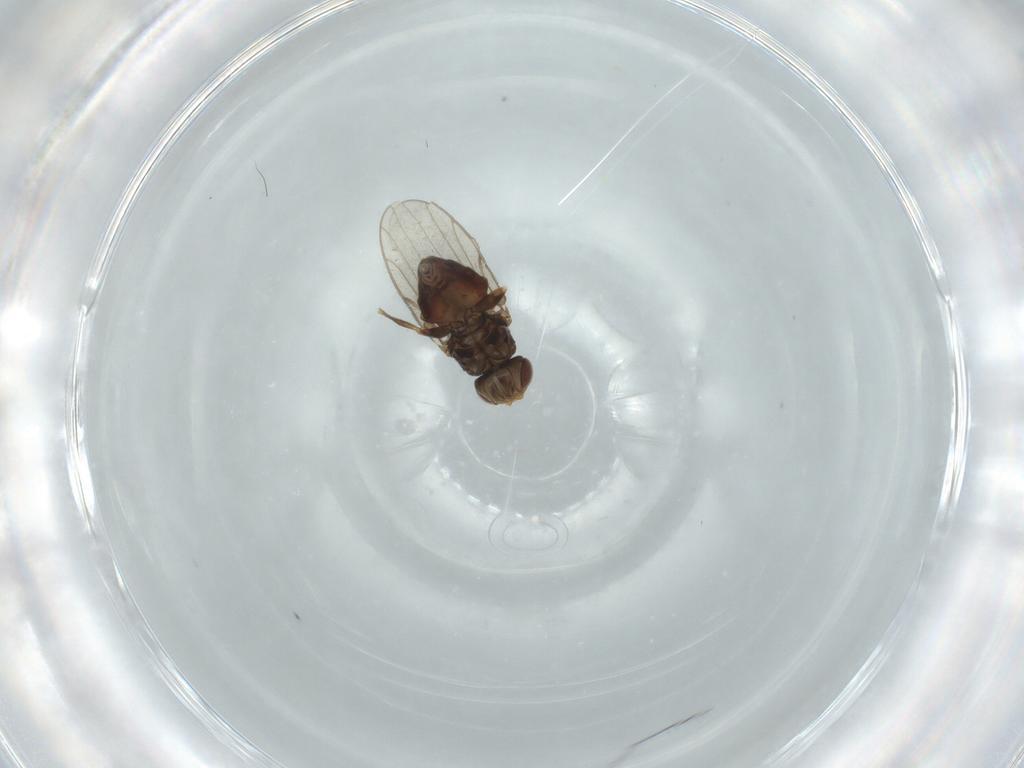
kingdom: Animalia
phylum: Arthropoda
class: Insecta
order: Diptera
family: Chloropidae
